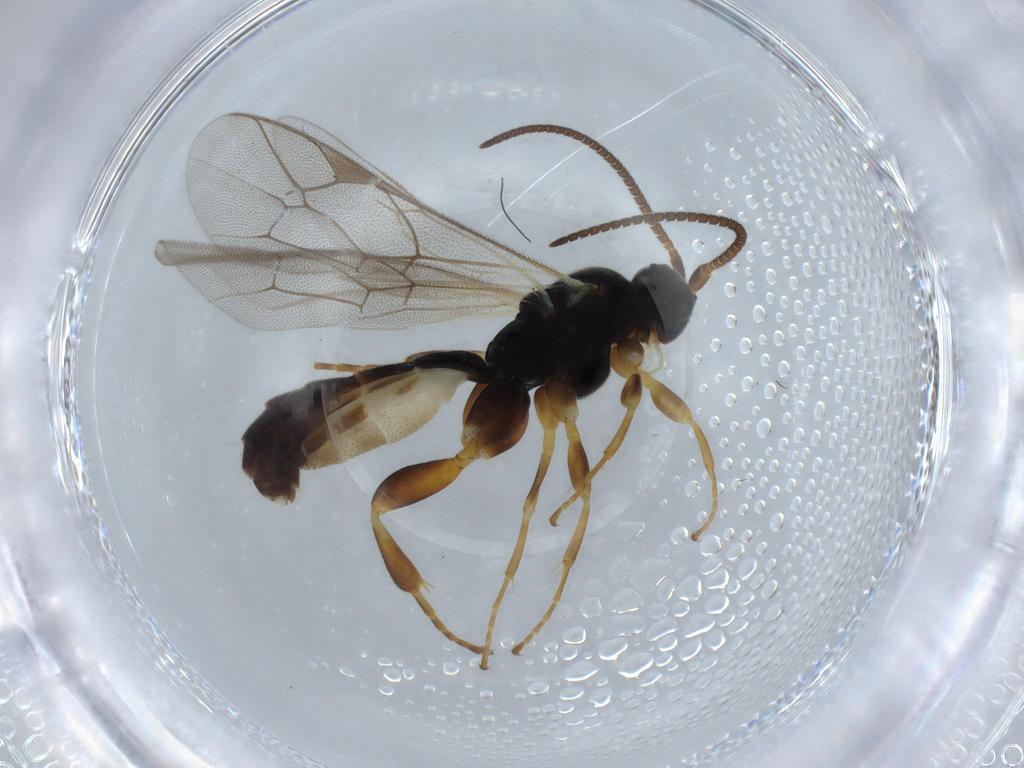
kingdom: Animalia
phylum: Arthropoda
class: Insecta
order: Hymenoptera
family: Ichneumonidae
